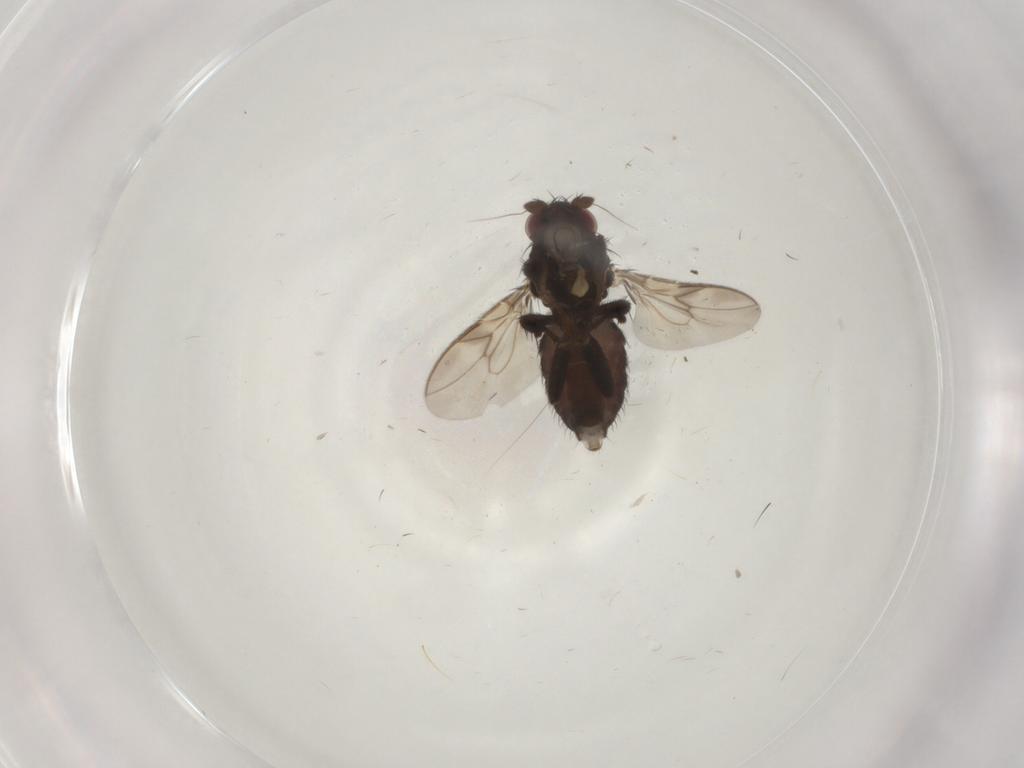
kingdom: Animalia
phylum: Arthropoda
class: Insecta
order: Diptera
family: Sphaeroceridae
